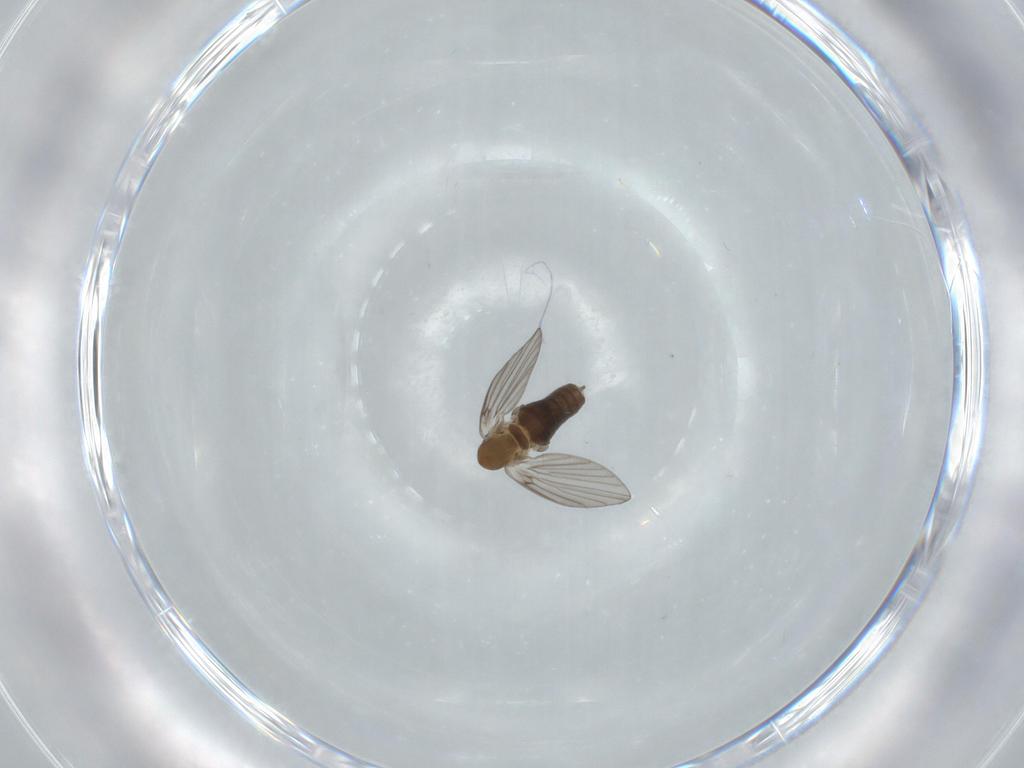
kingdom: Animalia
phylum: Arthropoda
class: Insecta
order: Diptera
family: Psychodidae
